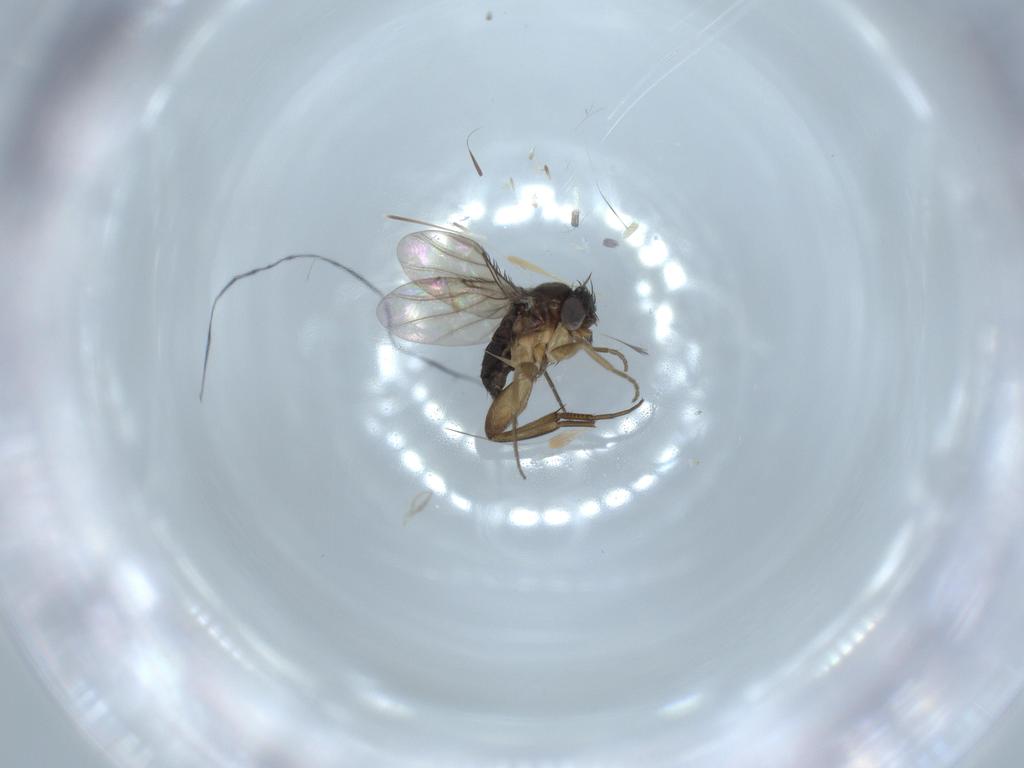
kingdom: Animalia
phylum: Arthropoda
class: Insecta
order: Diptera
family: Phoridae
